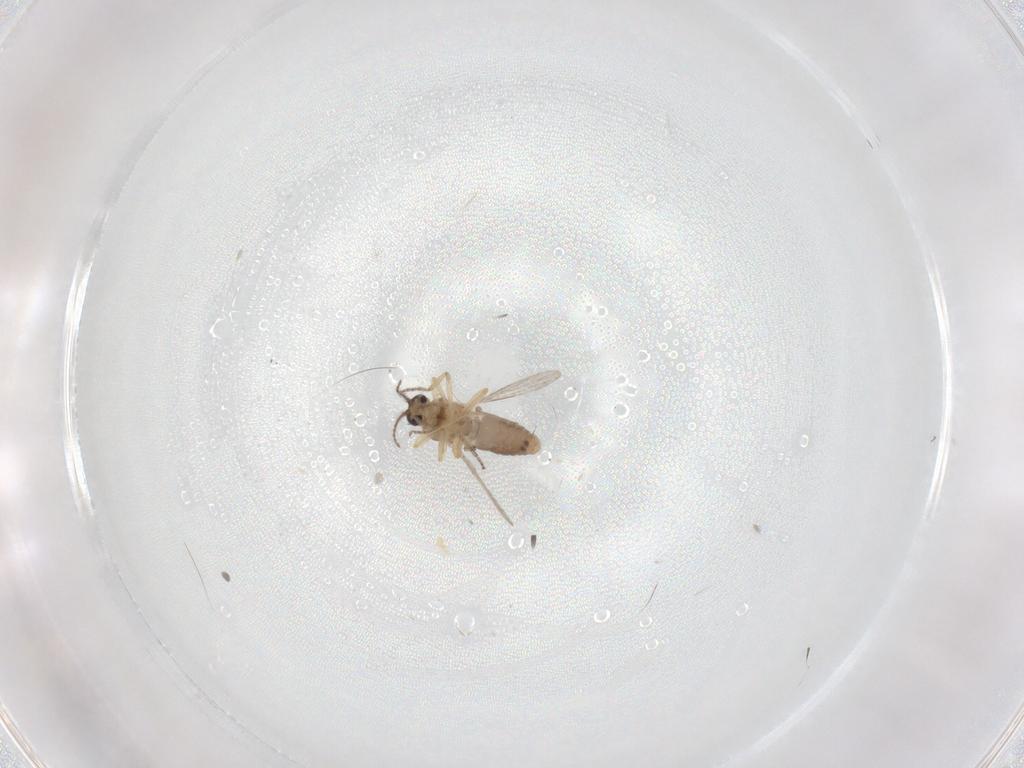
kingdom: Animalia
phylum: Arthropoda
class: Insecta
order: Diptera
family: Ceratopogonidae
